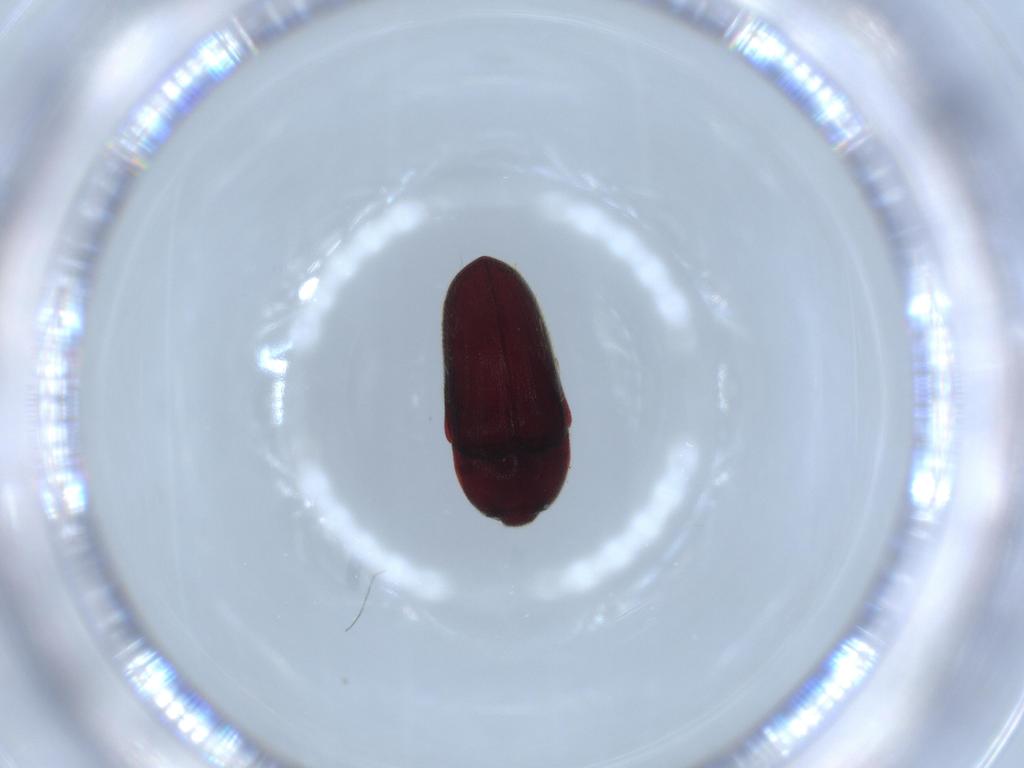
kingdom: Animalia
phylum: Arthropoda
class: Insecta
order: Coleoptera
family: Throscidae
